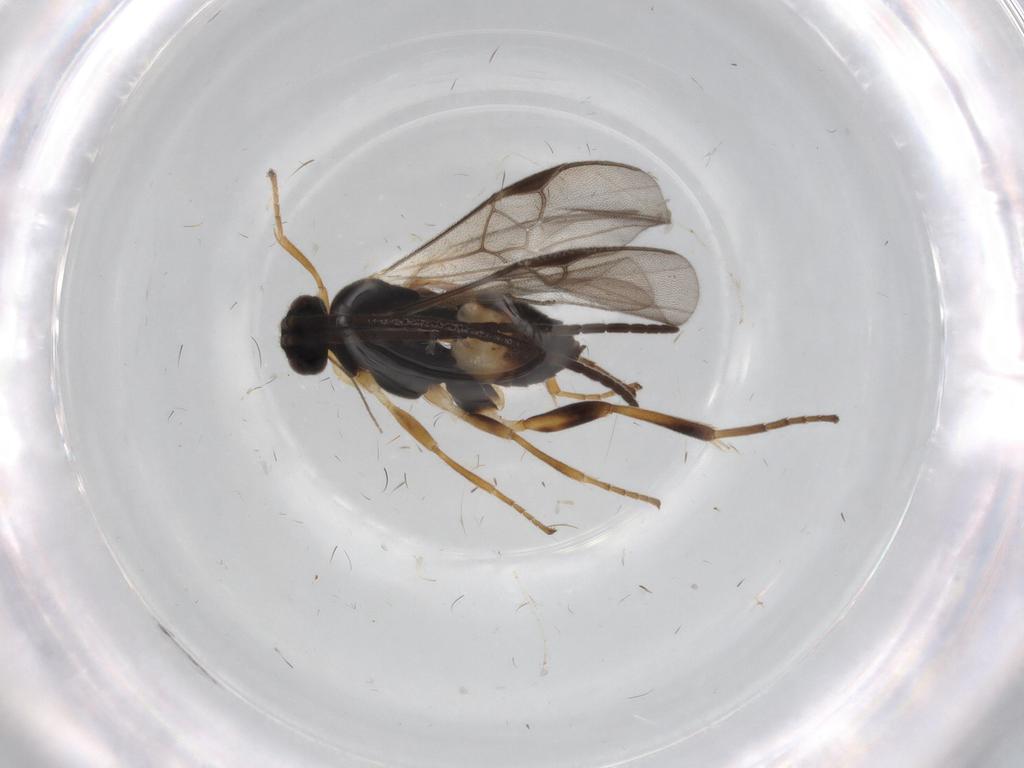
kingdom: Animalia
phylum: Arthropoda
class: Insecta
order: Hymenoptera
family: Braconidae
